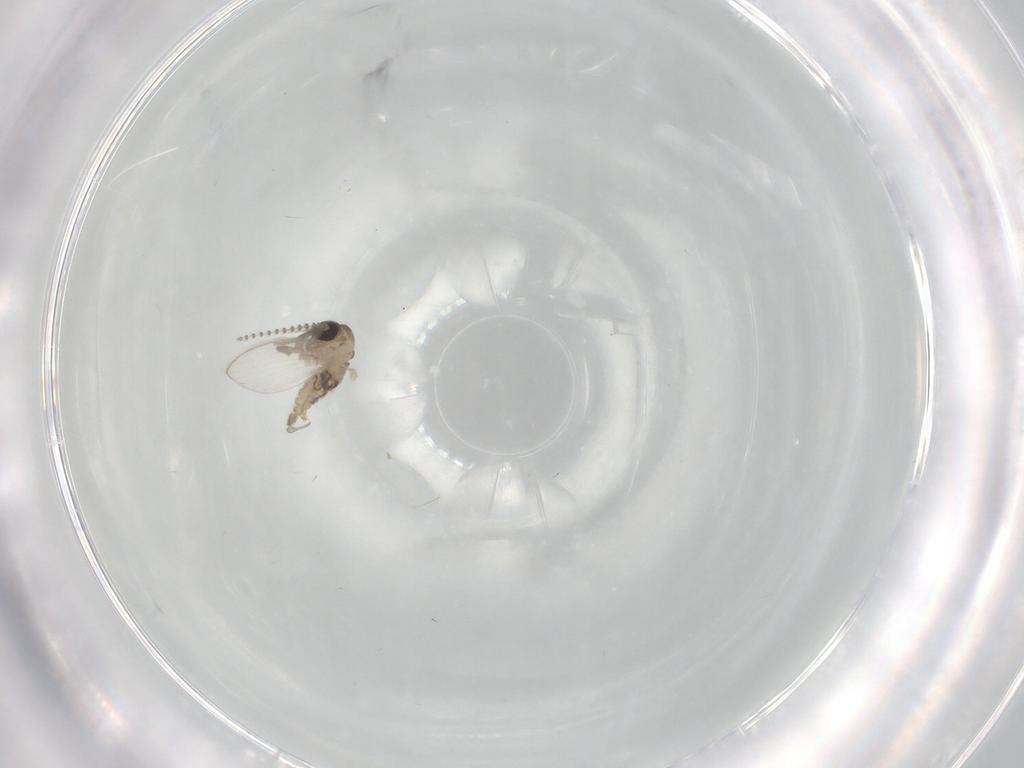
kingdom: Animalia
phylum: Arthropoda
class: Insecta
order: Diptera
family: Psychodidae
